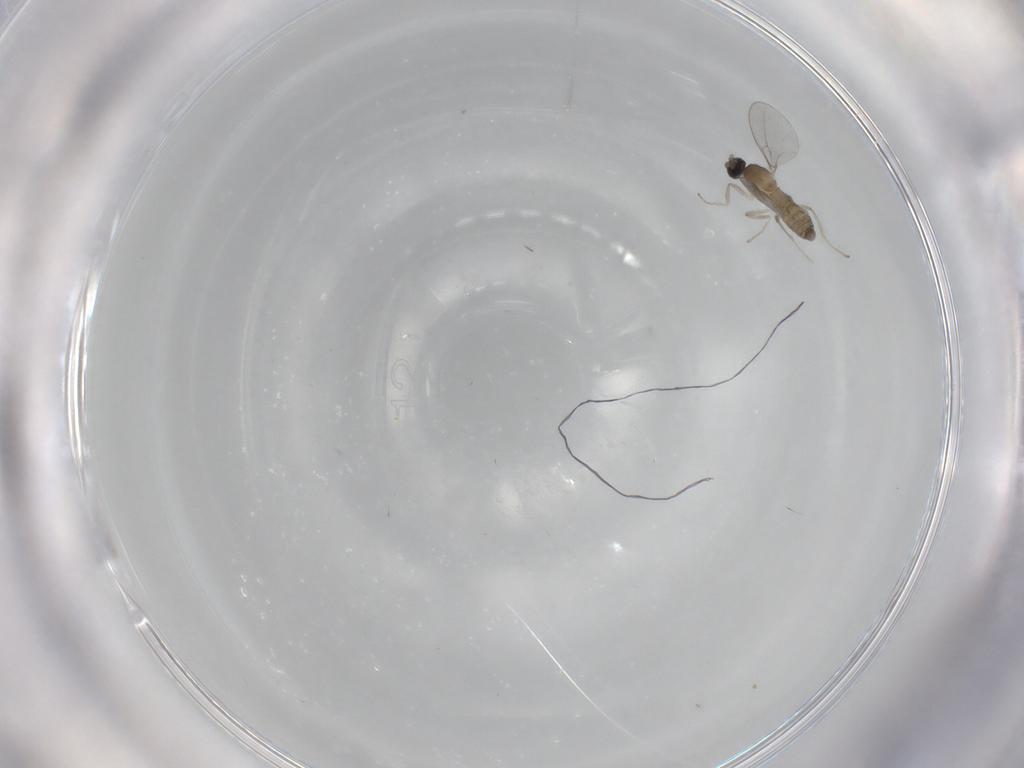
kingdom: Animalia
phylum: Arthropoda
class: Insecta
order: Diptera
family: Cecidomyiidae
